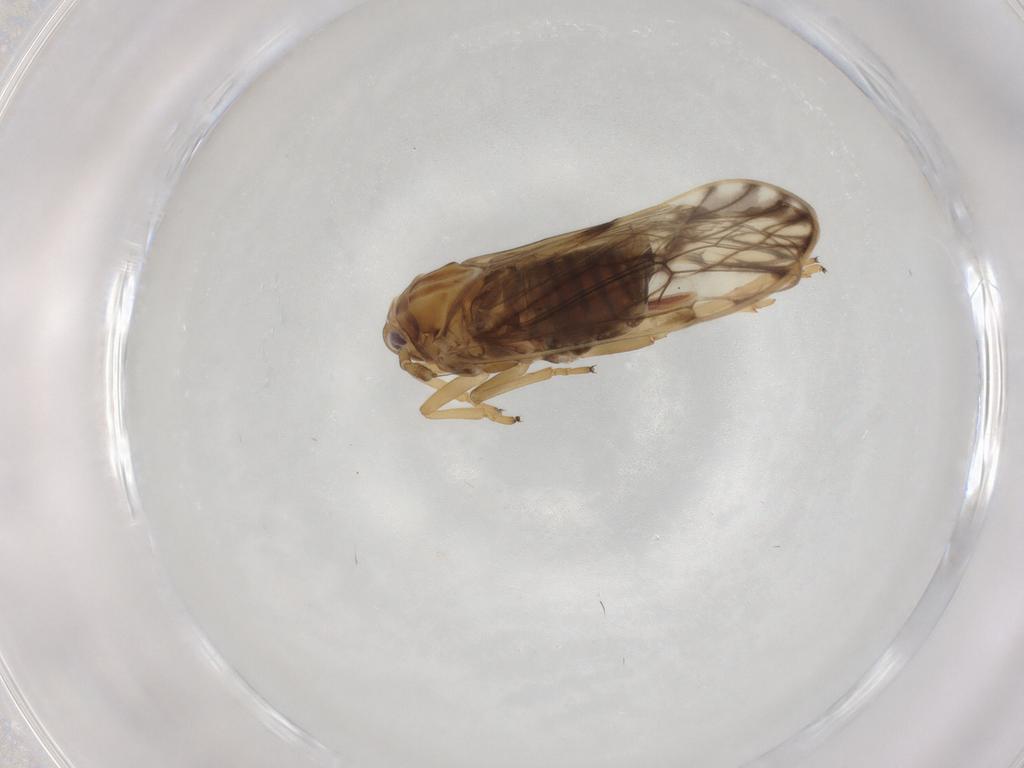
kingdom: Animalia
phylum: Arthropoda
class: Insecta
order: Hemiptera
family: Delphacidae
